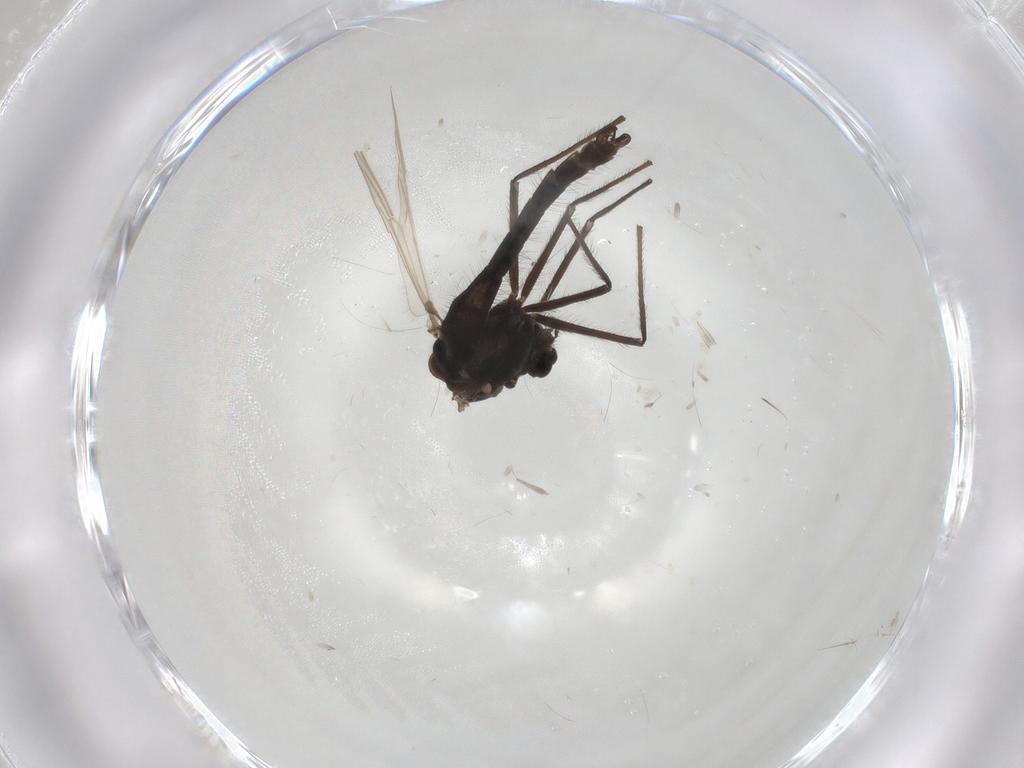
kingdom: Animalia
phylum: Arthropoda
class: Insecta
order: Diptera
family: Chironomidae
